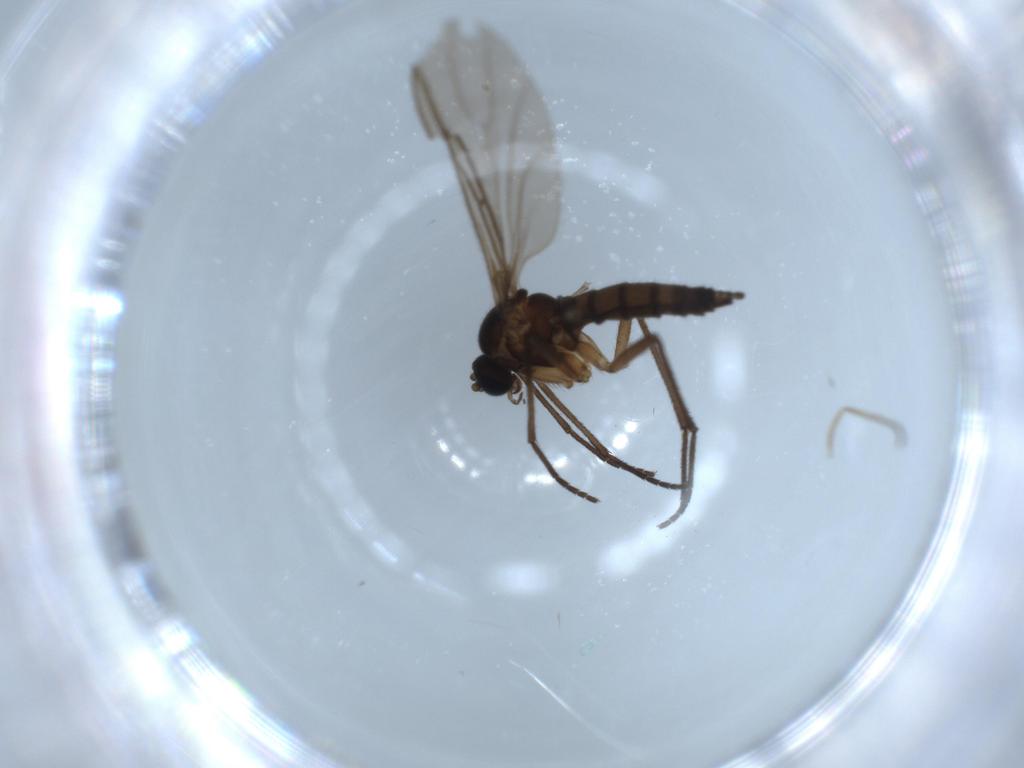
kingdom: Animalia
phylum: Arthropoda
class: Insecta
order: Diptera
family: Sciaridae
